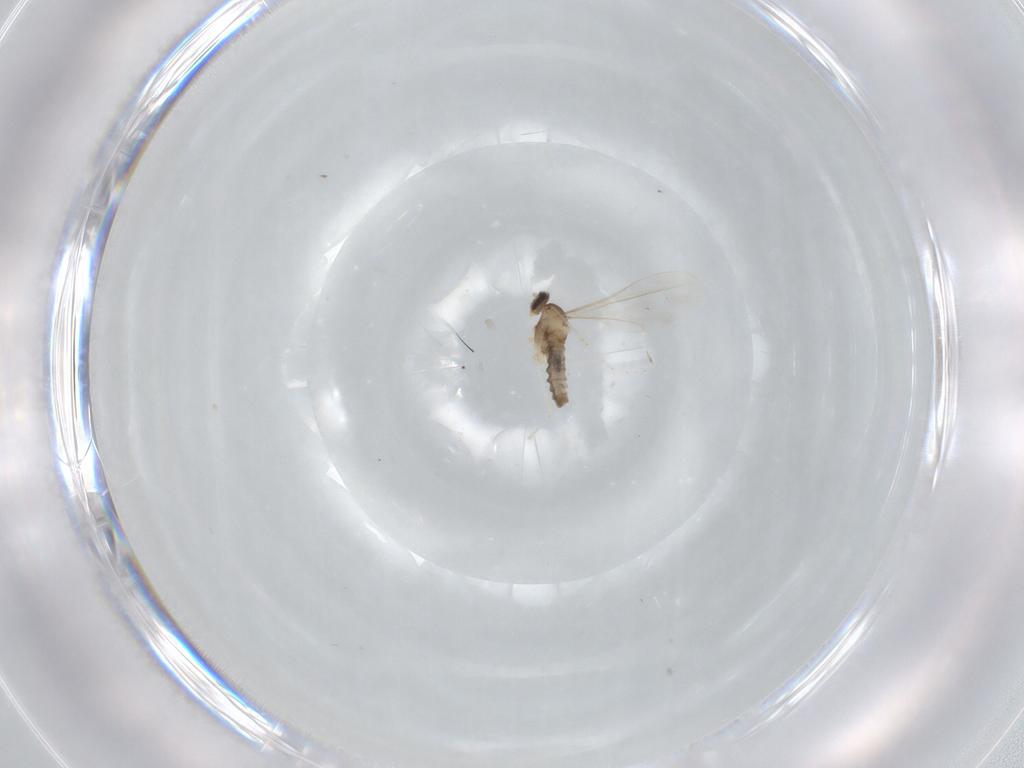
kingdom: Animalia
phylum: Arthropoda
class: Insecta
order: Diptera
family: Cecidomyiidae
